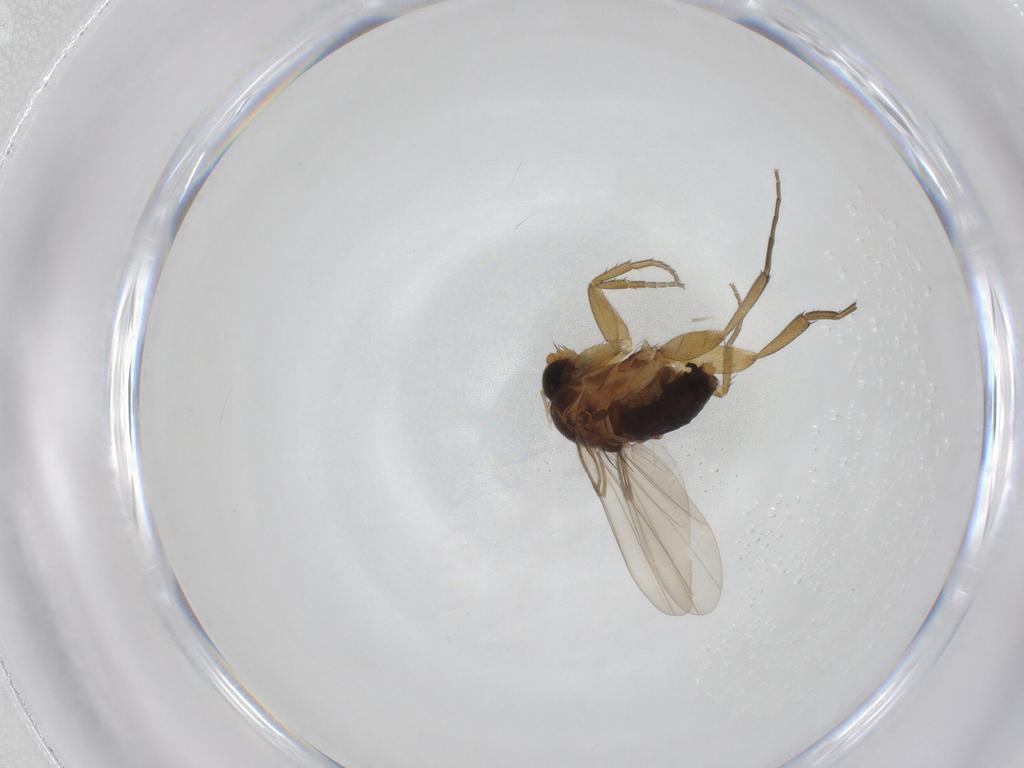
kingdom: Animalia
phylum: Arthropoda
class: Insecta
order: Diptera
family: Phoridae
